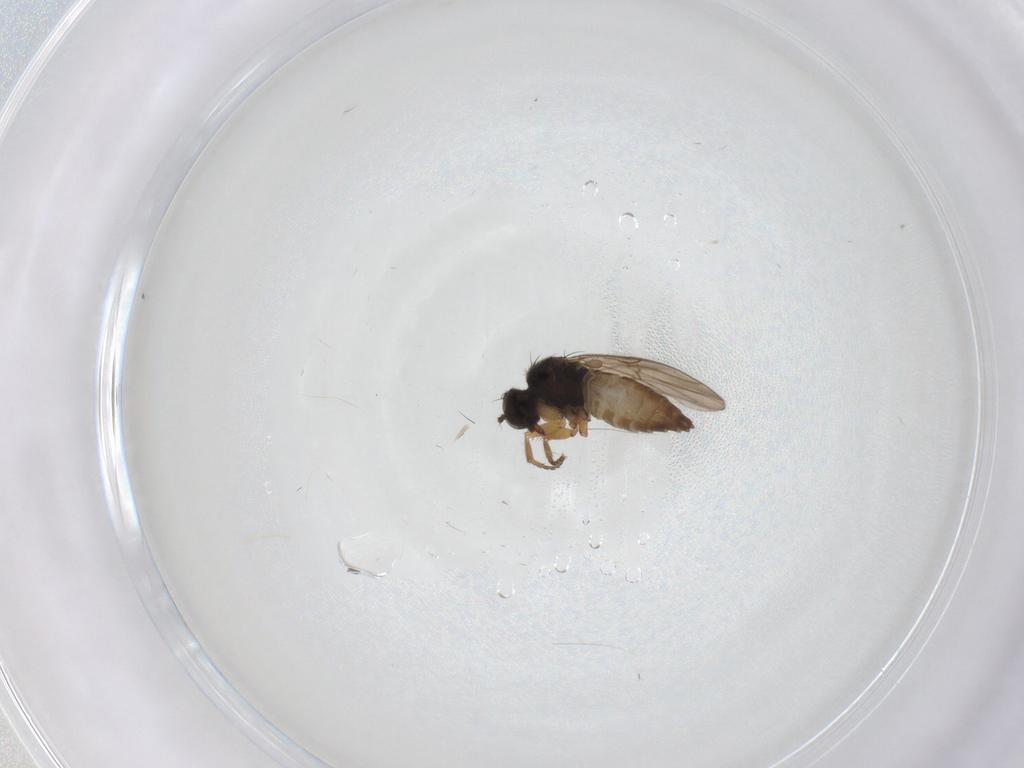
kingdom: Animalia
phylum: Arthropoda
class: Insecta
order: Diptera
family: Hybotidae
